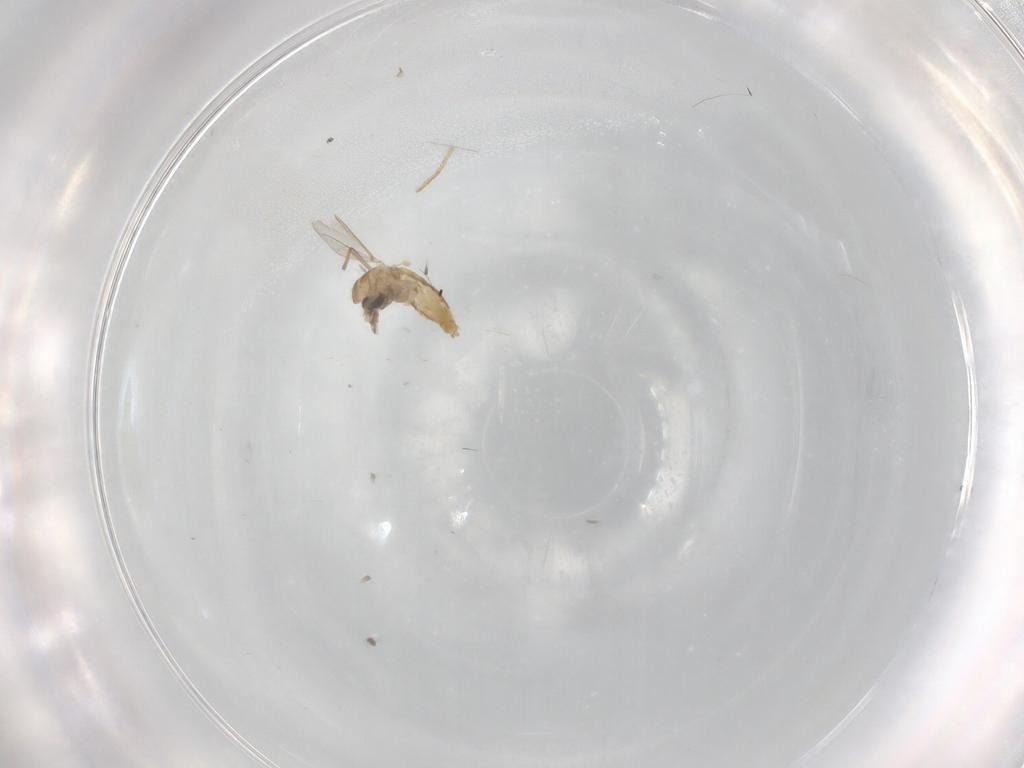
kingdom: Animalia
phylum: Arthropoda
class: Insecta
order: Diptera
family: Chironomidae
